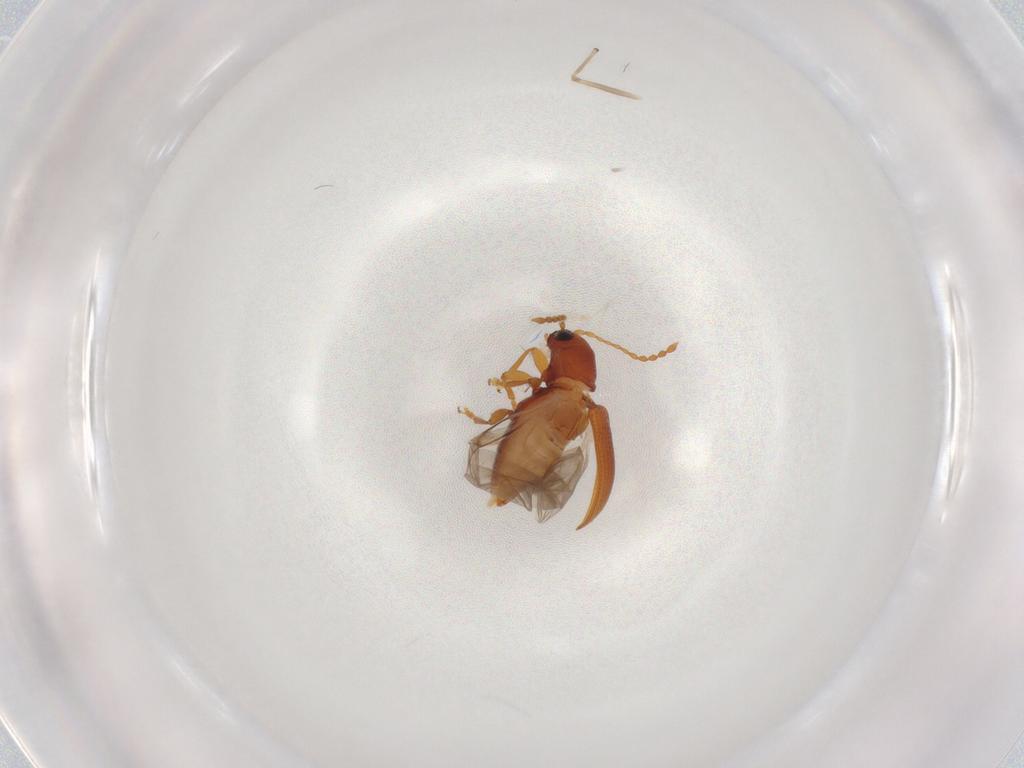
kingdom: Animalia
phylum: Arthropoda
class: Insecta
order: Coleoptera
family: Chrysomelidae
